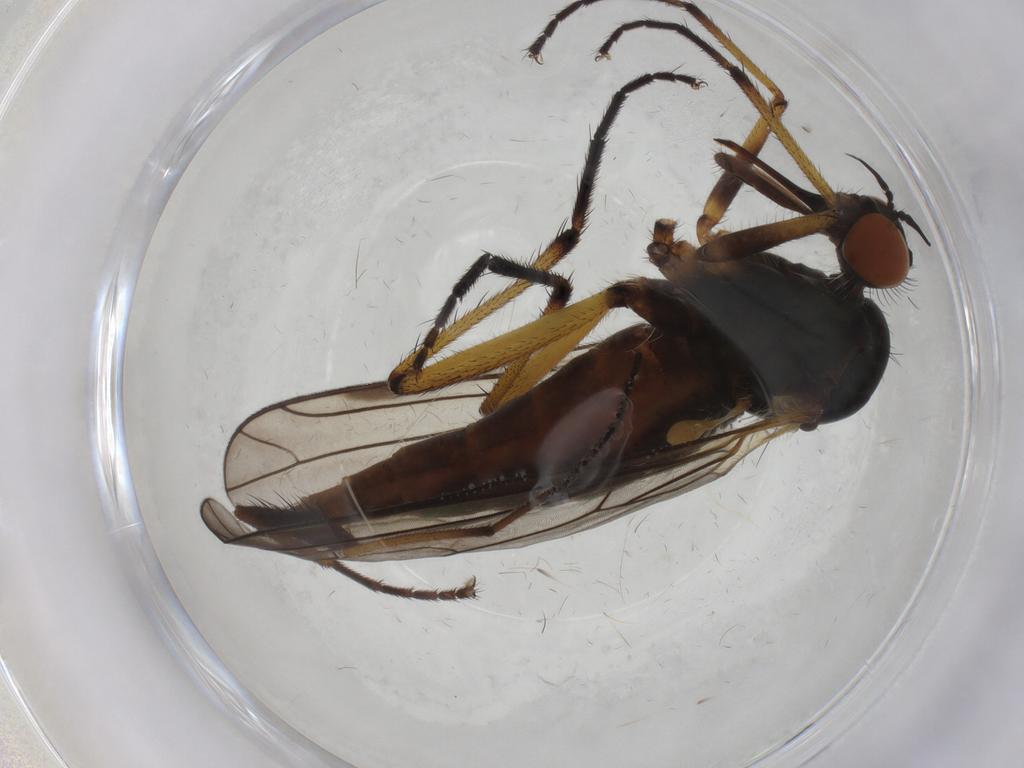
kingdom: Animalia
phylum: Arthropoda
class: Insecta
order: Diptera
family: Empididae
